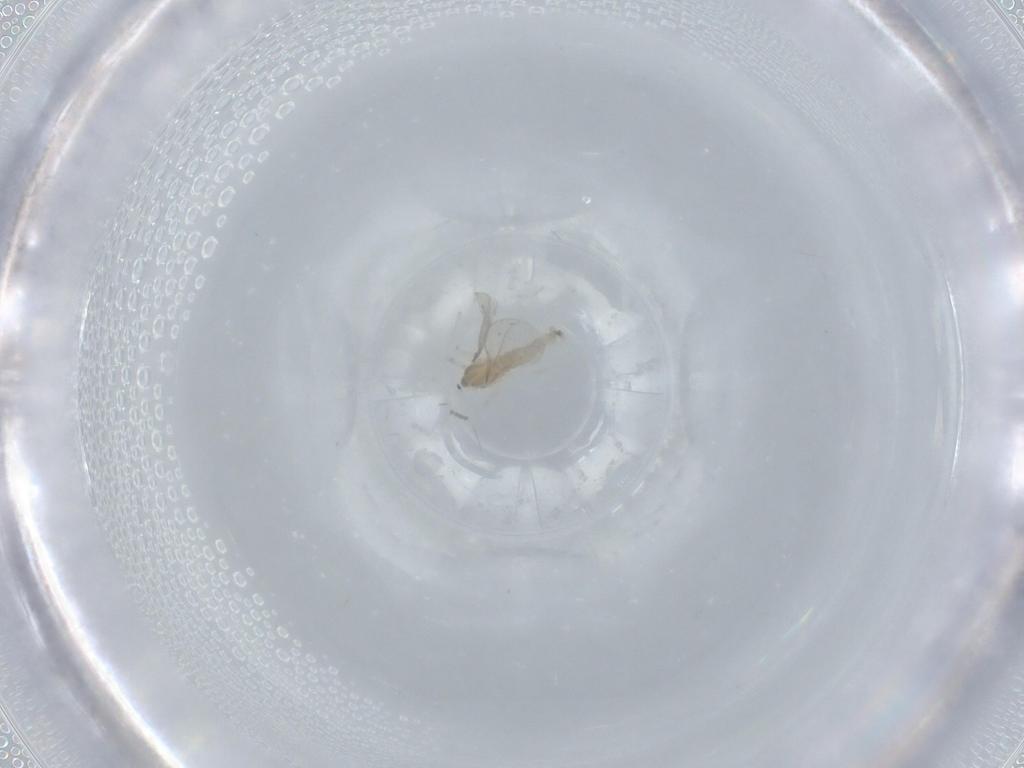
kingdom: Animalia
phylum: Arthropoda
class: Insecta
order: Diptera
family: Cecidomyiidae
